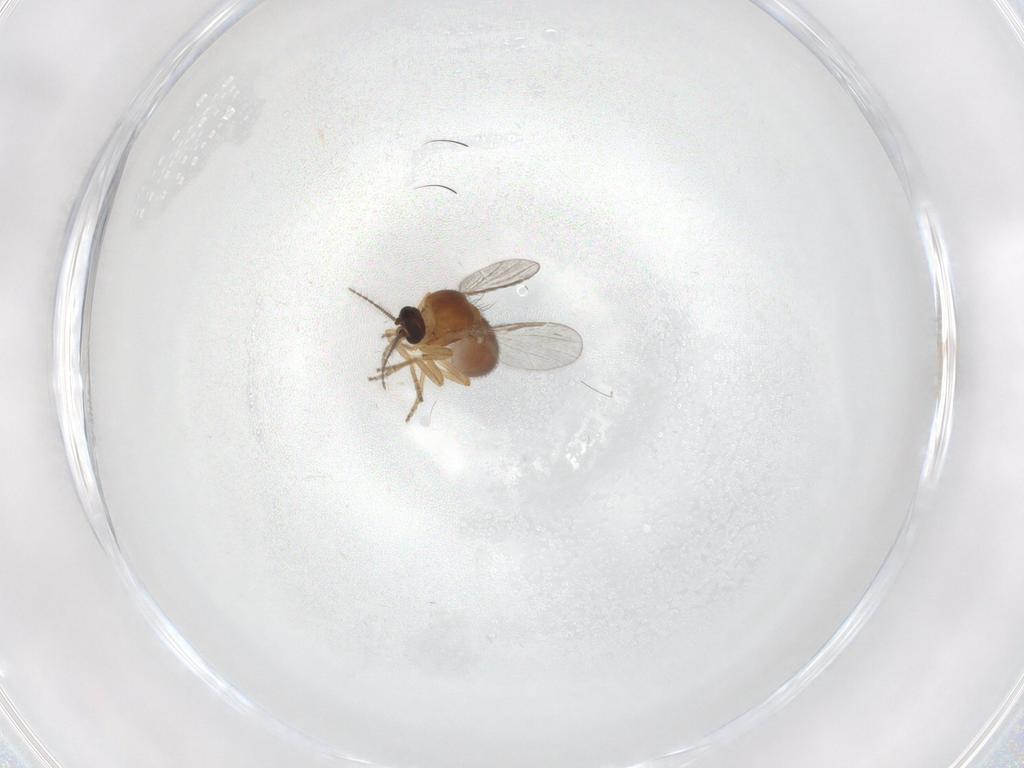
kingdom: Animalia
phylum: Arthropoda
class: Insecta
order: Diptera
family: Ceratopogonidae
